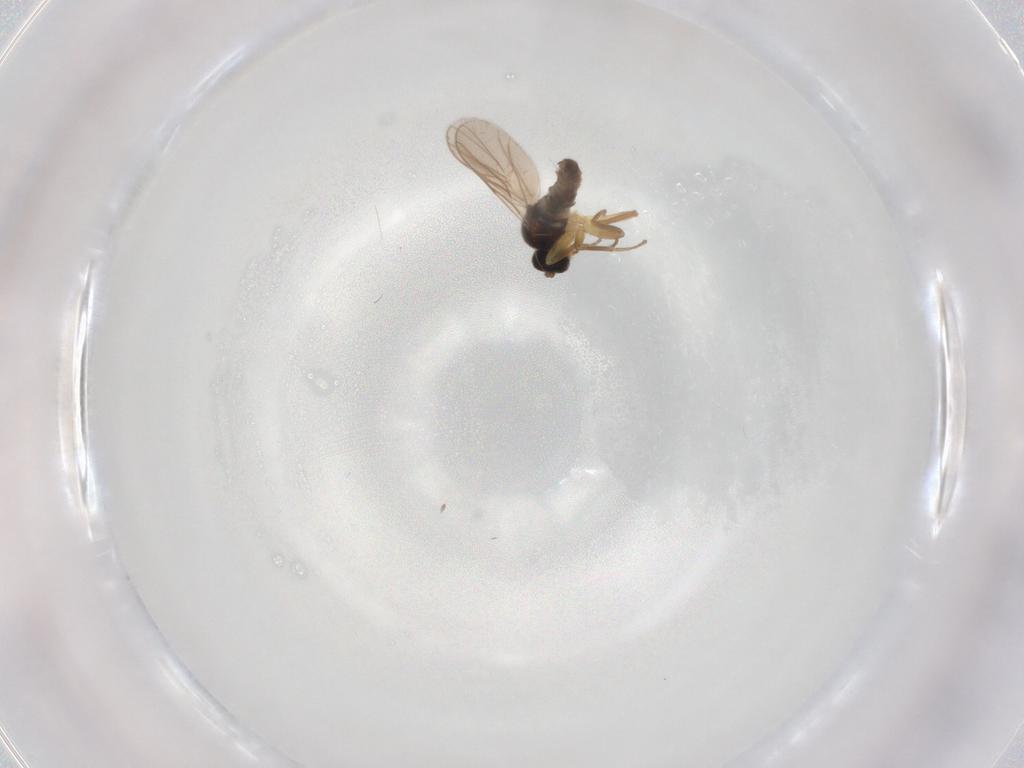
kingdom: Animalia
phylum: Arthropoda
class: Insecta
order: Diptera
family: Hybotidae
